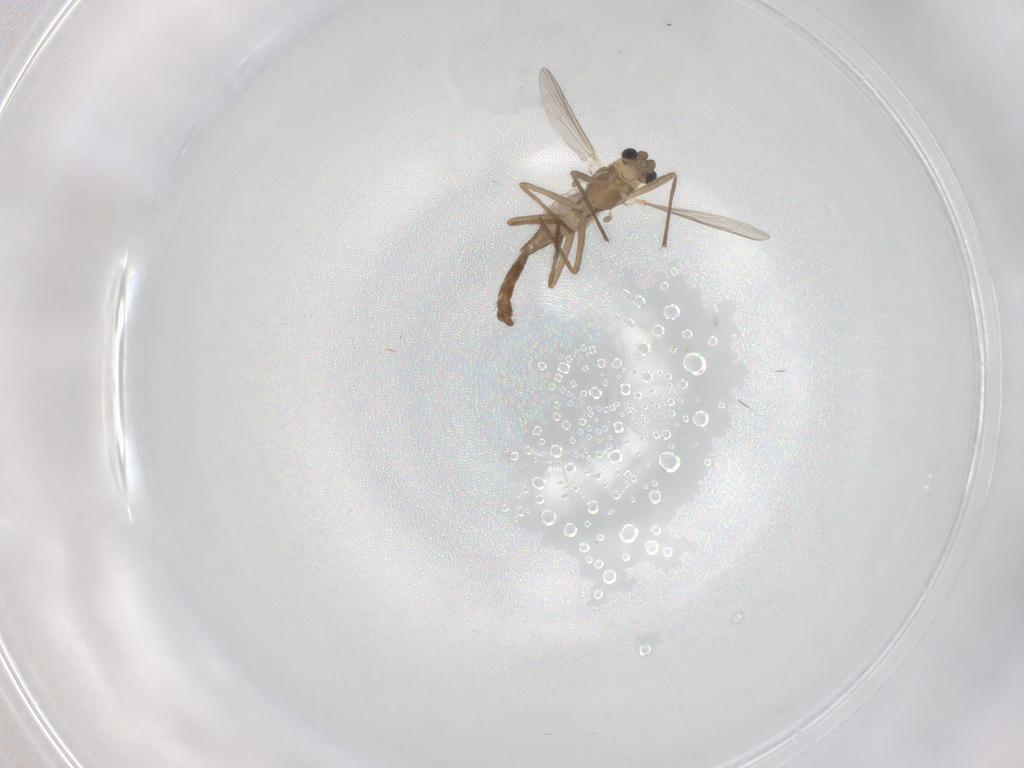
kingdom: Animalia
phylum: Arthropoda
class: Insecta
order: Diptera
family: Chironomidae
